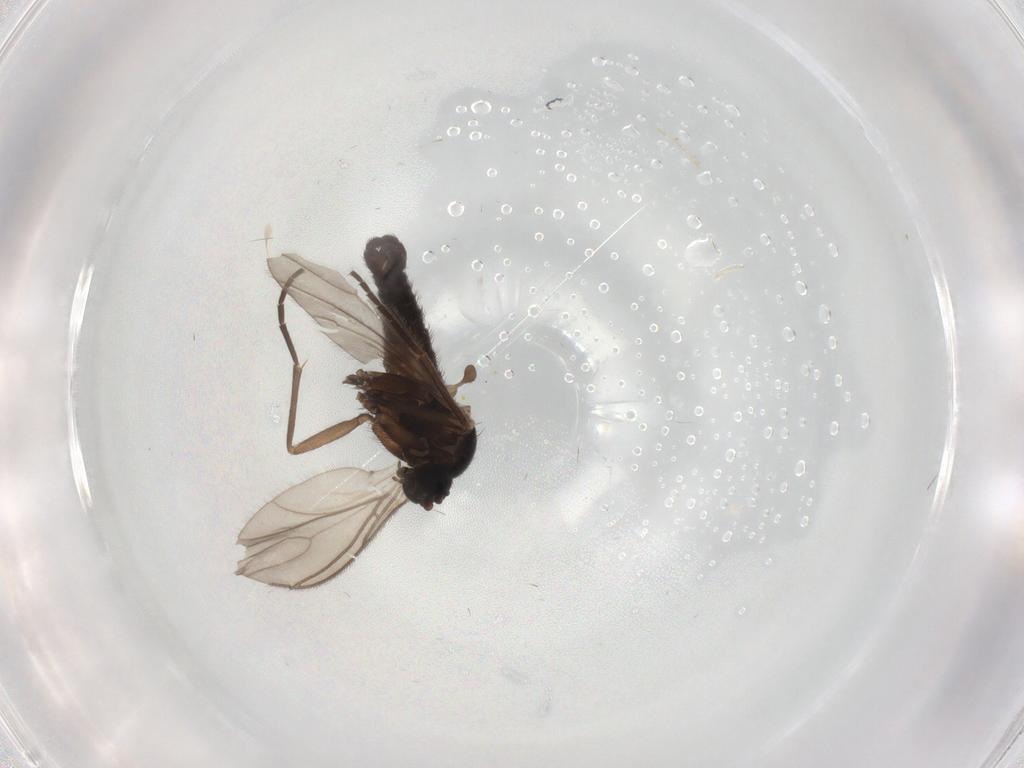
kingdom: Animalia
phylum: Arthropoda
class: Insecta
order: Diptera
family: Sciaridae
